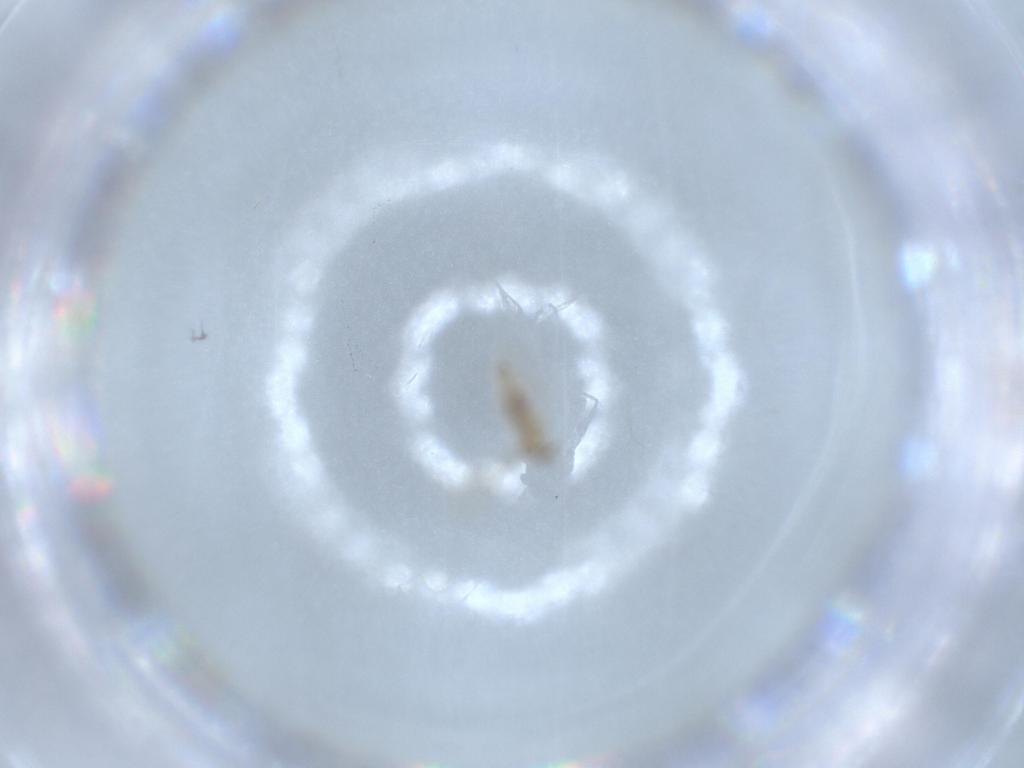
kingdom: Animalia
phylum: Arthropoda
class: Insecta
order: Diptera
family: Cecidomyiidae
